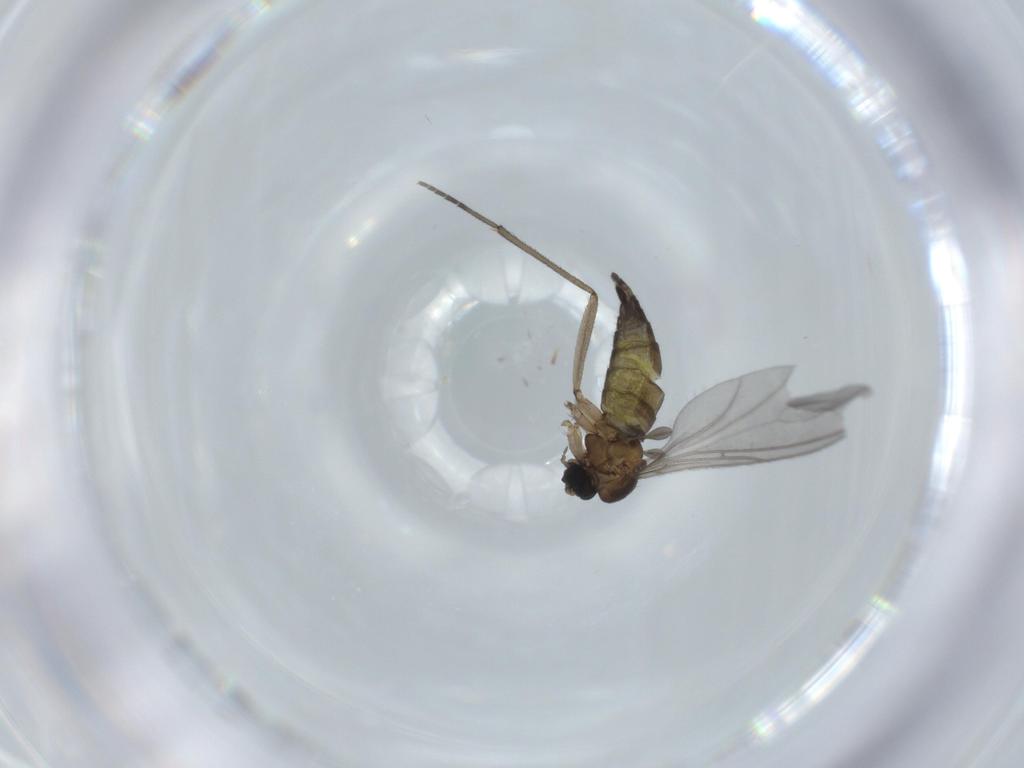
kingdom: Animalia
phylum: Arthropoda
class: Insecta
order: Diptera
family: Sciaridae
